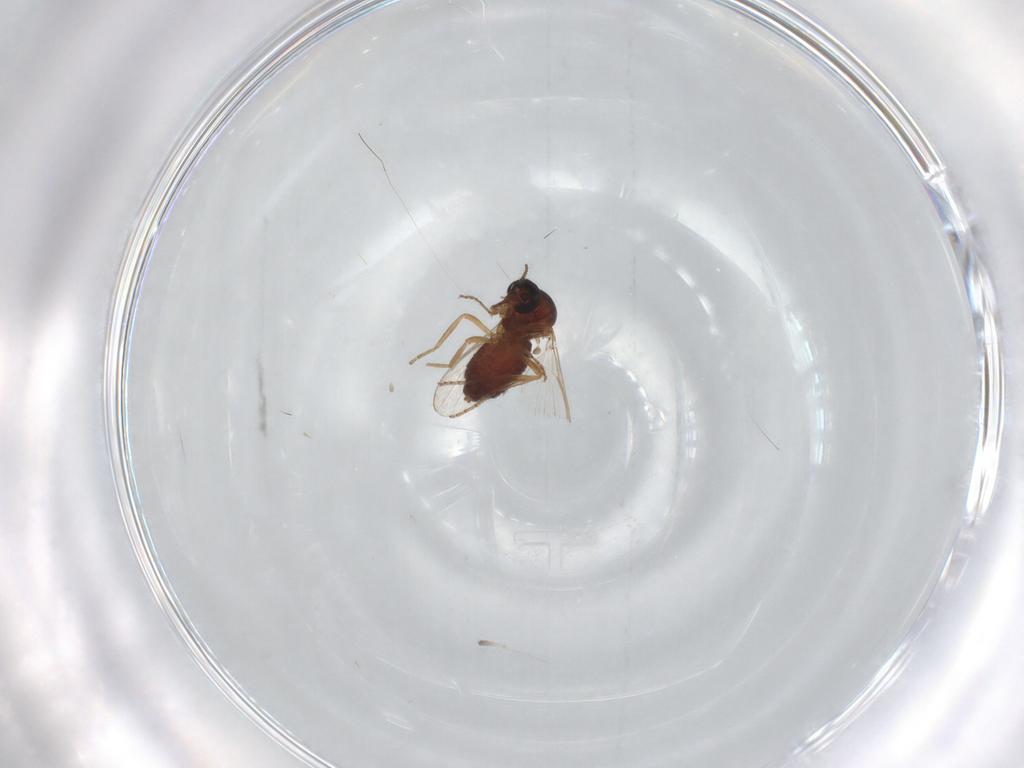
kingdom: Animalia
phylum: Arthropoda
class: Insecta
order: Diptera
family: Ceratopogonidae
